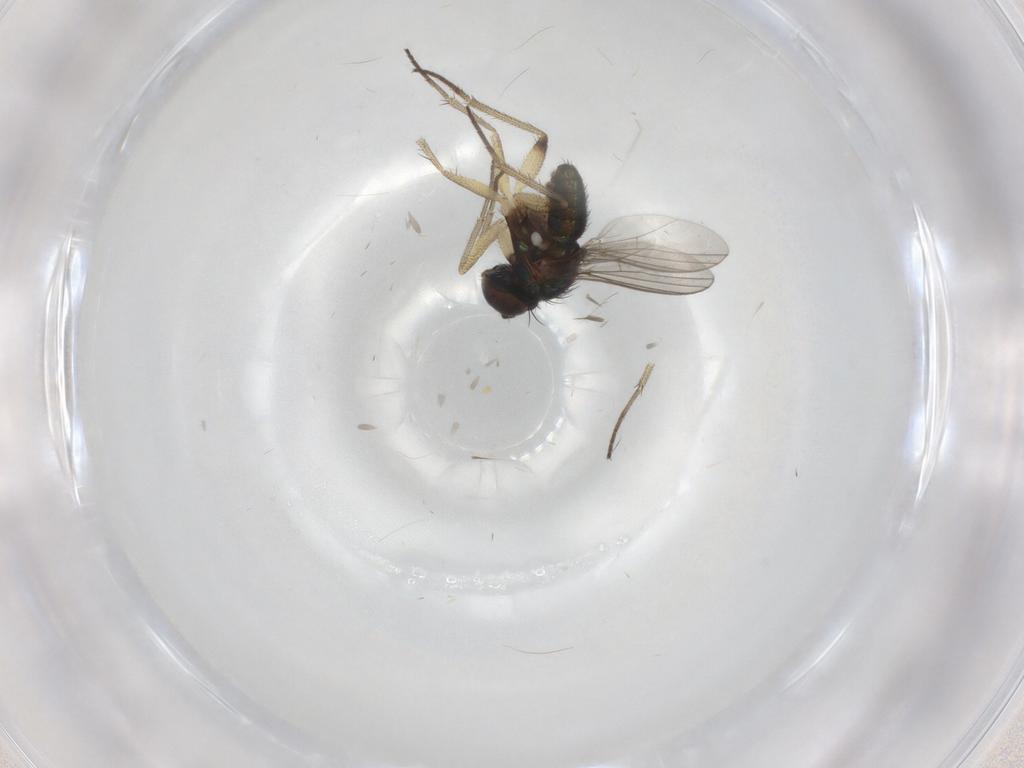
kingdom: Animalia
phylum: Arthropoda
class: Insecta
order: Diptera
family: Dolichopodidae
